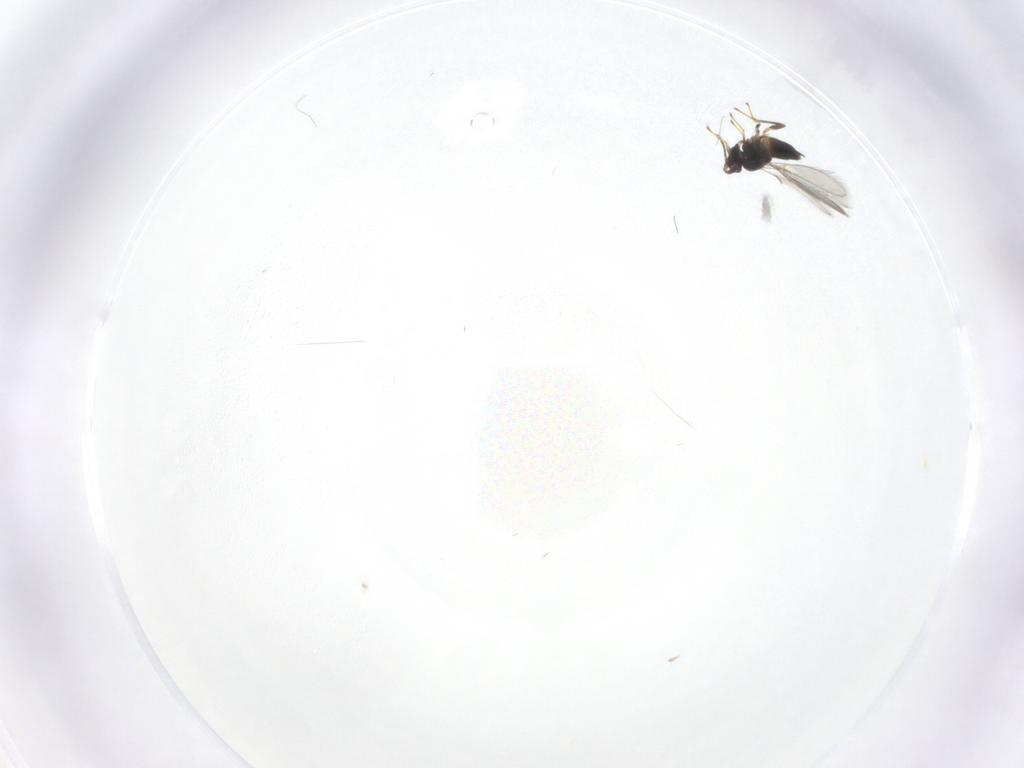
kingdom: Animalia
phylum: Arthropoda
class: Insecta
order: Hymenoptera
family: Mymaridae
